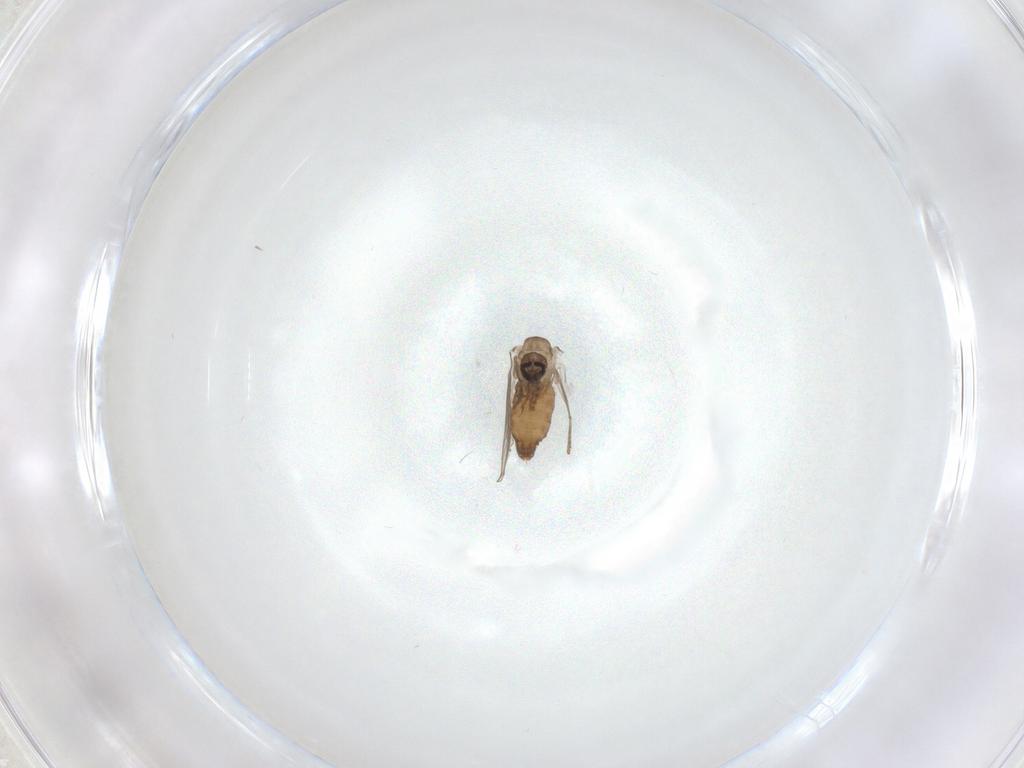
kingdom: Animalia
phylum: Arthropoda
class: Insecta
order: Diptera
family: Psychodidae
